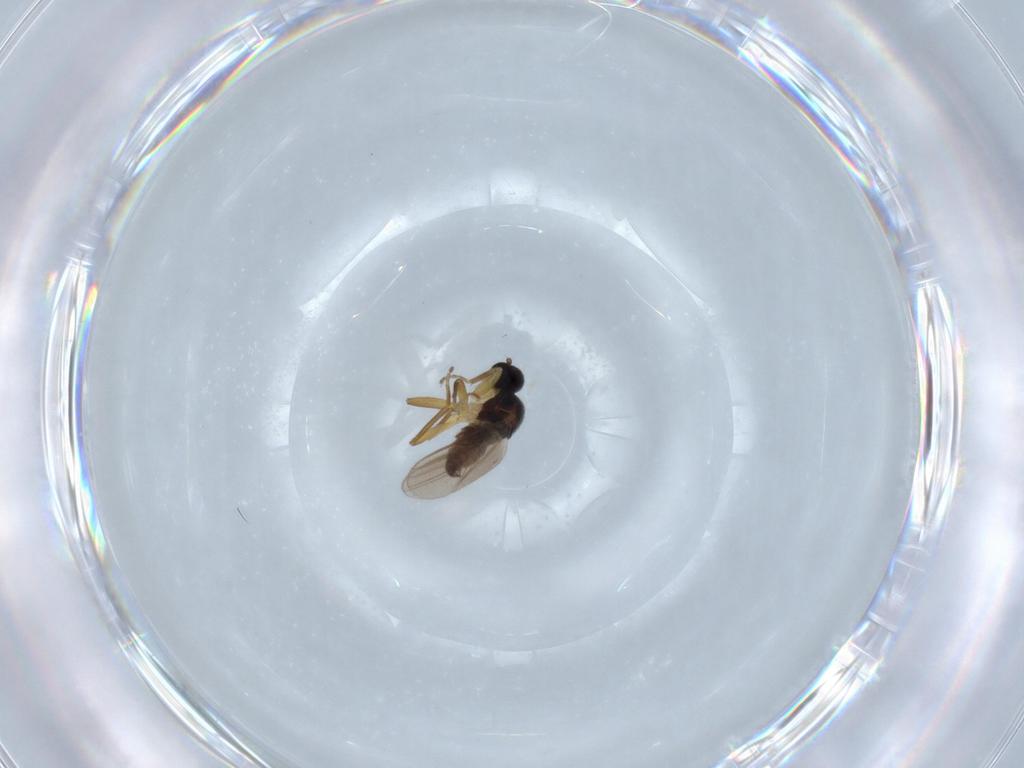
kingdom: Animalia
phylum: Arthropoda
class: Insecta
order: Diptera
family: Hybotidae
